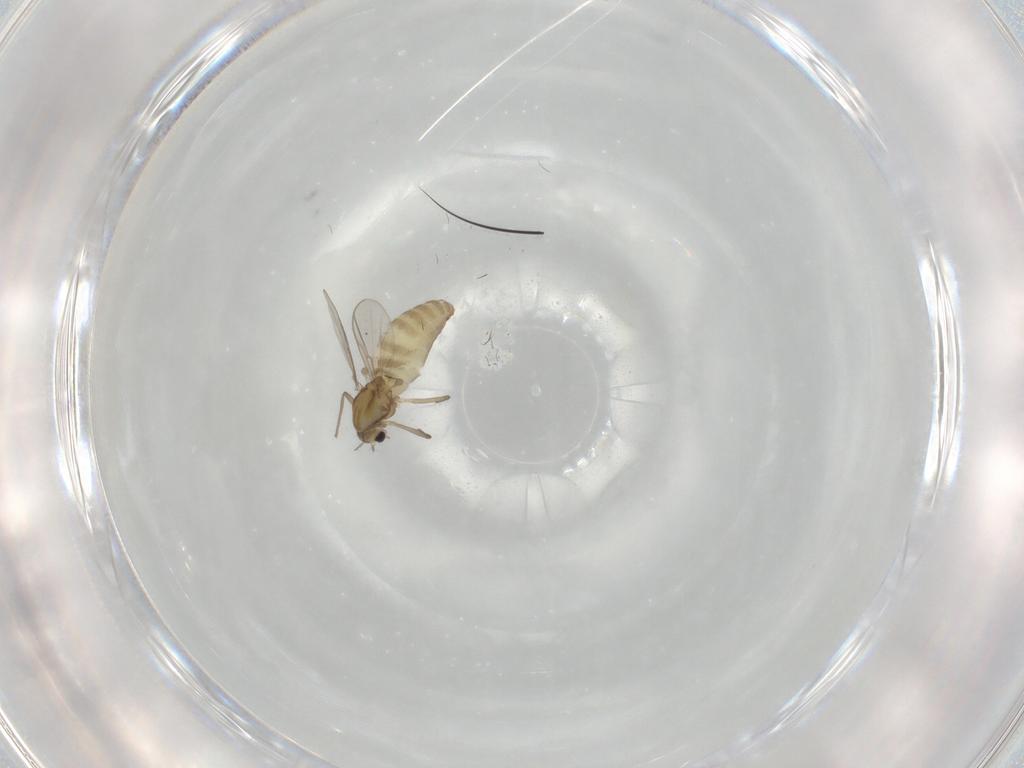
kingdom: Animalia
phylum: Arthropoda
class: Insecta
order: Diptera
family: Chironomidae
